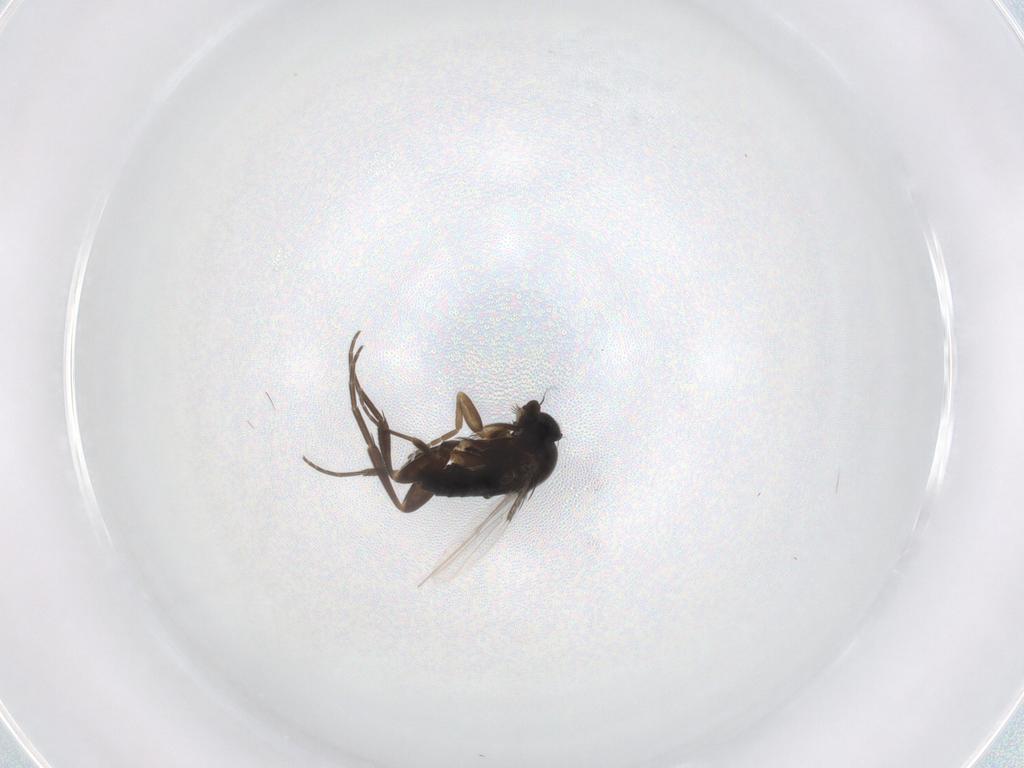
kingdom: Animalia
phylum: Arthropoda
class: Insecta
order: Diptera
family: Phoridae
